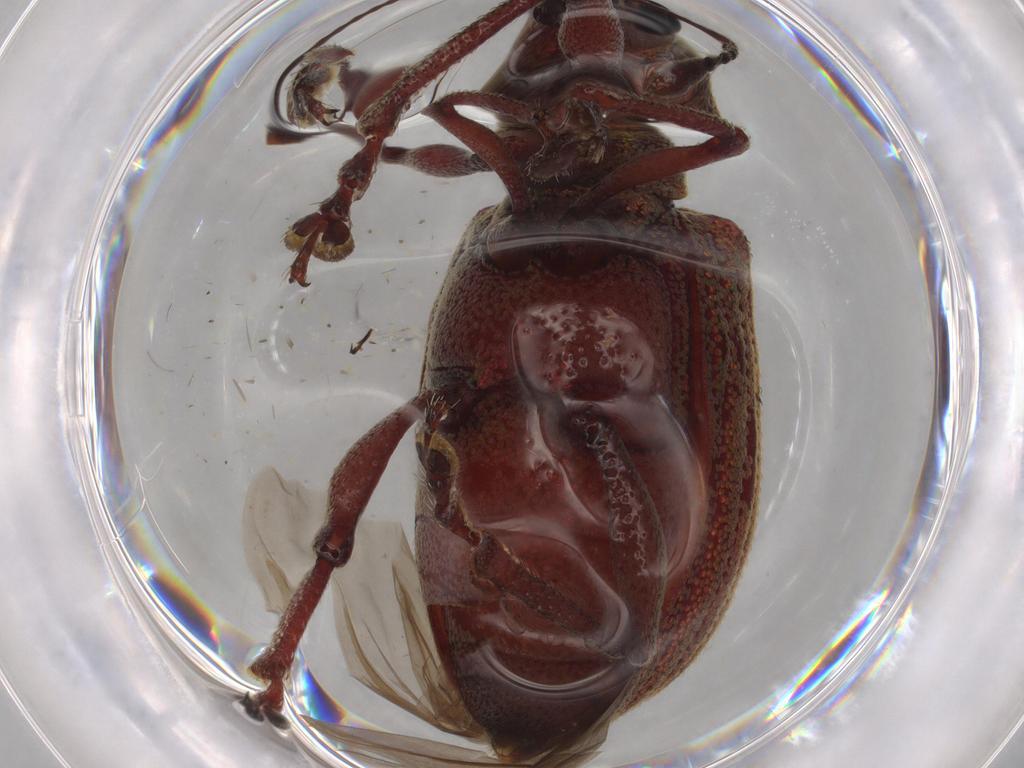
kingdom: Animalia
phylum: Arthropoda
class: Insecta
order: Coleoptera
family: Curculionidae
